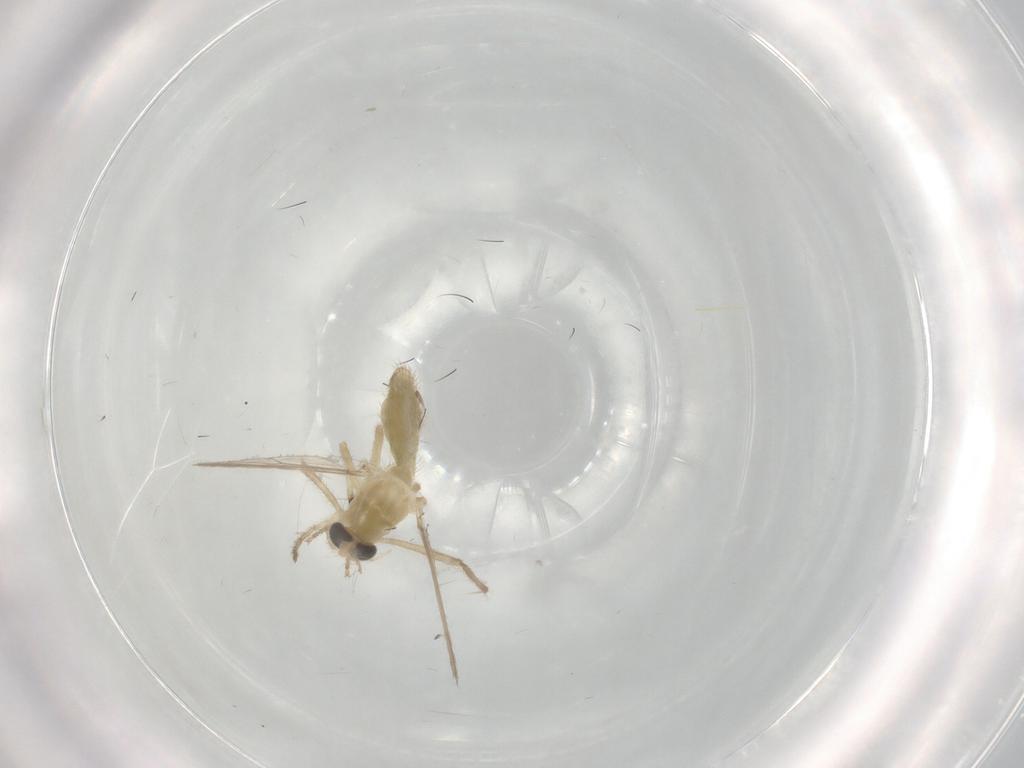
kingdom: Animalia
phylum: Arthropoda
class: Insecta
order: Diptera
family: Chironomidae
